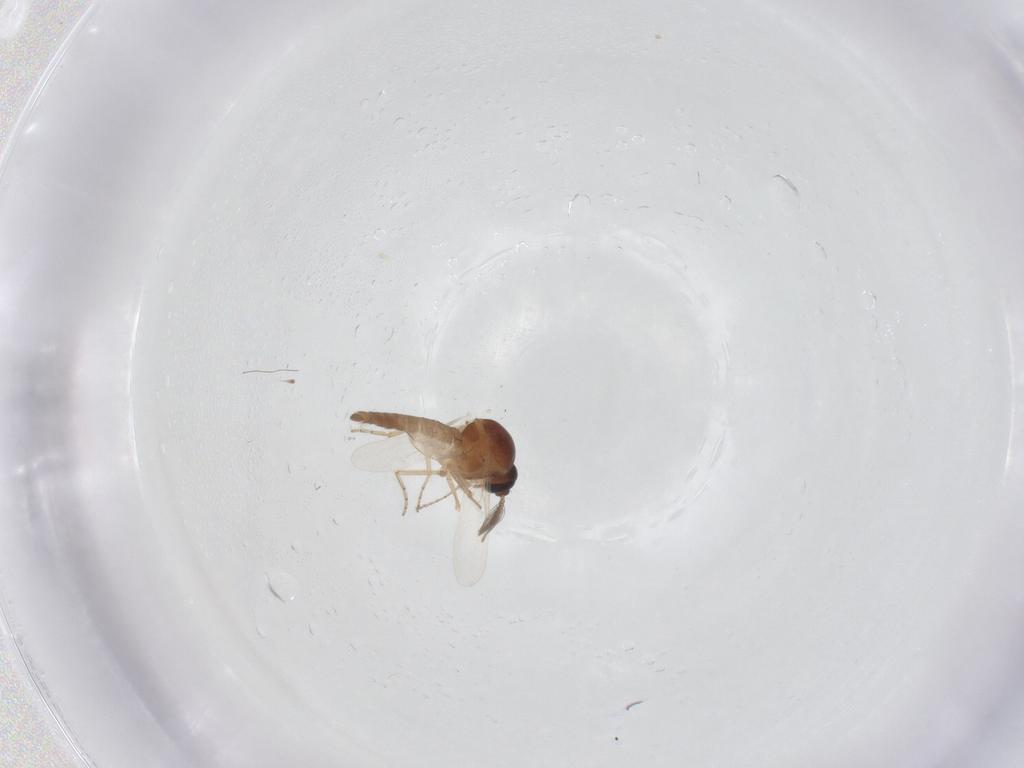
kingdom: Animalia
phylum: Arthropoda
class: Insecta
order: Diptera
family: Ceratopogonidae
